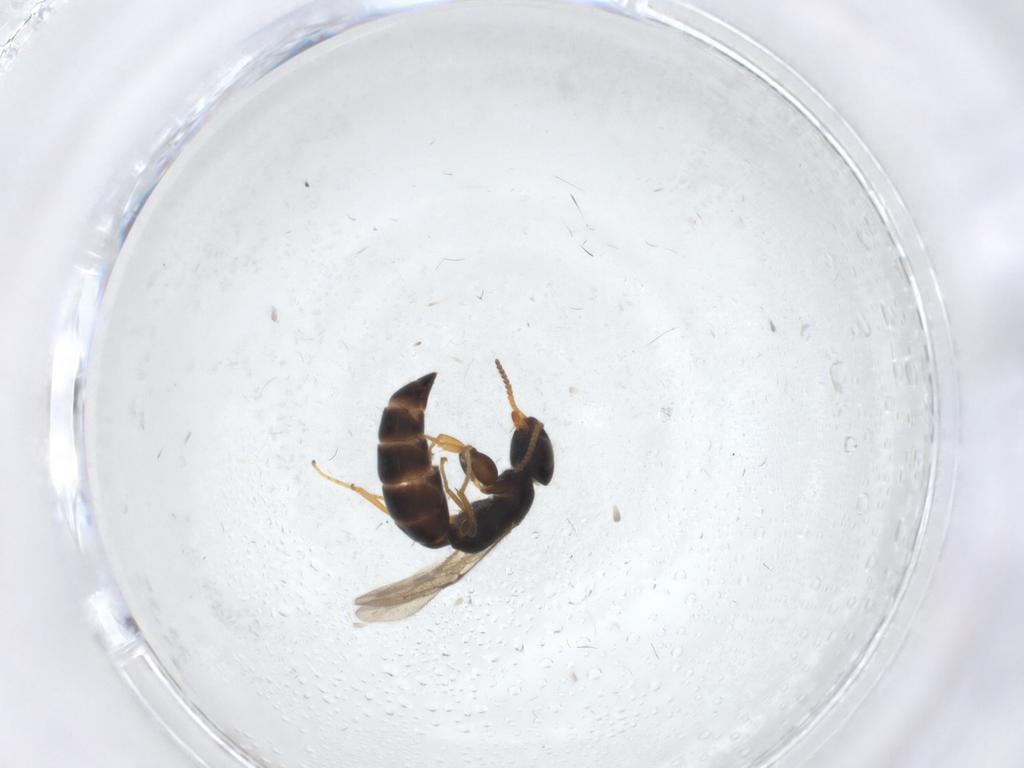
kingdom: Animalia
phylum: Arthropoda
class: Insecta
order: Hymenoptera
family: Bethylidae
